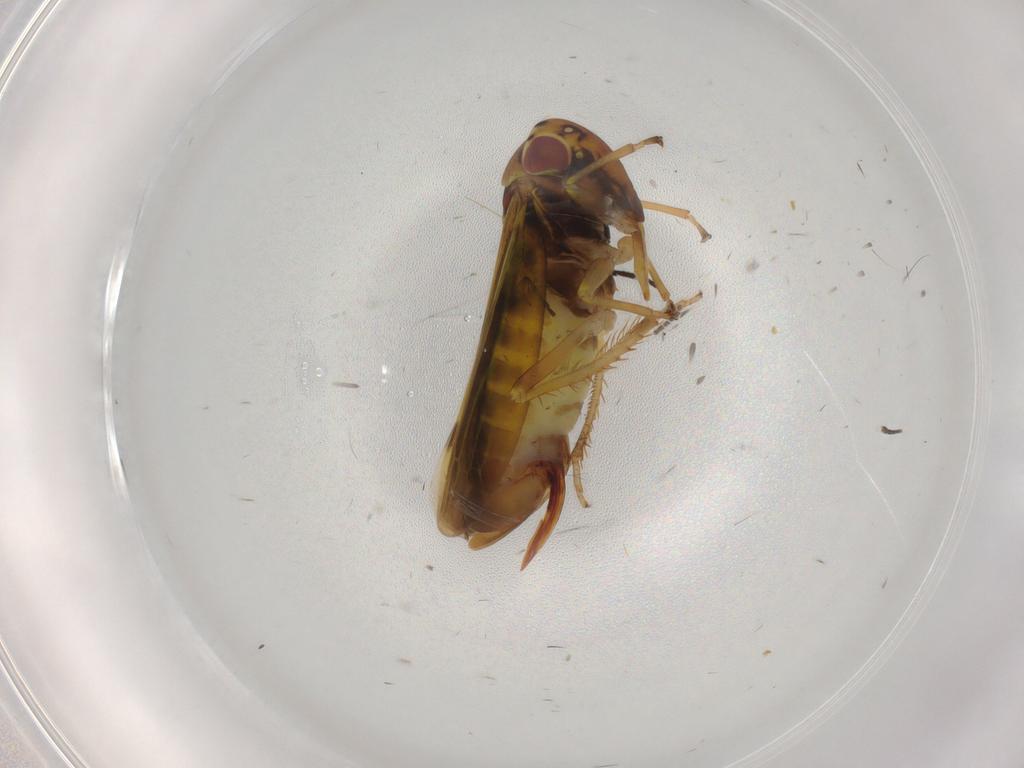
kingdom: Animalia
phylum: Arthropoda
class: Insecta
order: Hemiptera
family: Cicadellidae
